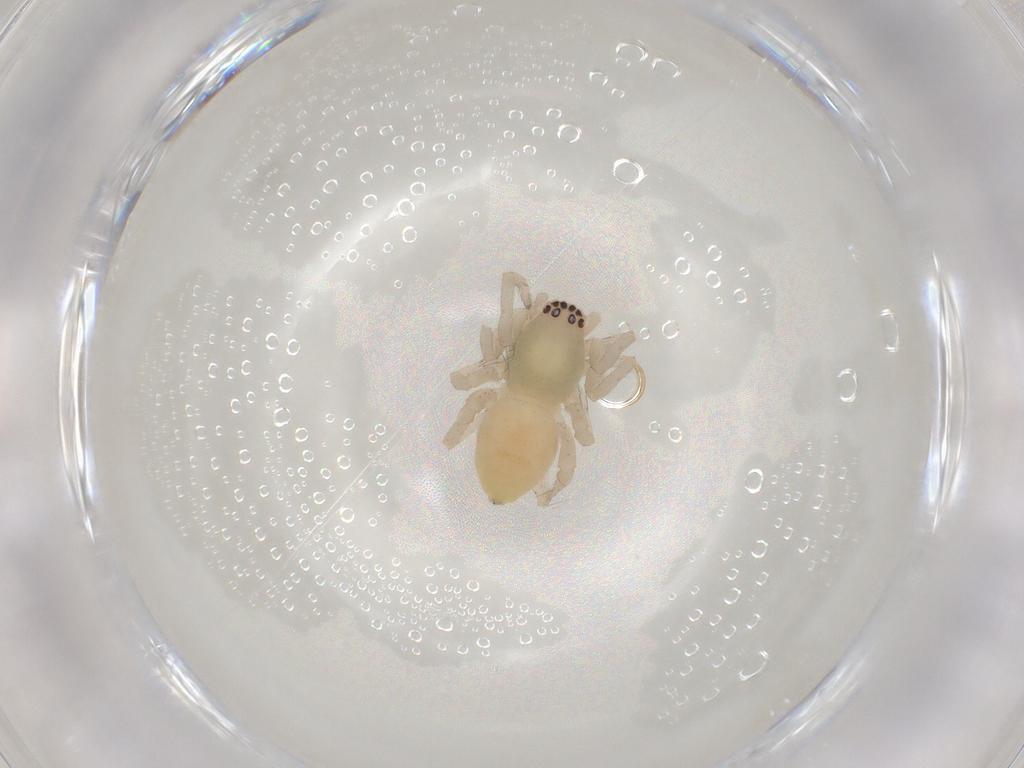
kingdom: Animalia
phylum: Arthropoda
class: Arachnida
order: Araneae
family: Clubionidae
